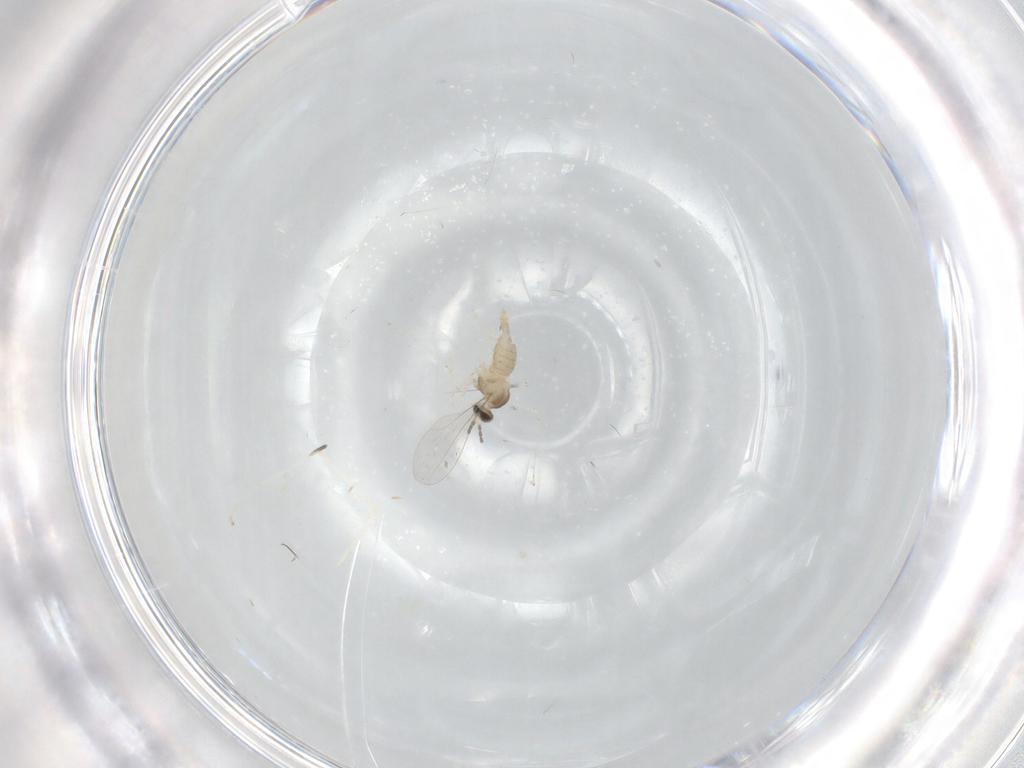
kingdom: Animalia
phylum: Arthropoda
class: Insecta
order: Diptera
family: Cecidomyiidae
